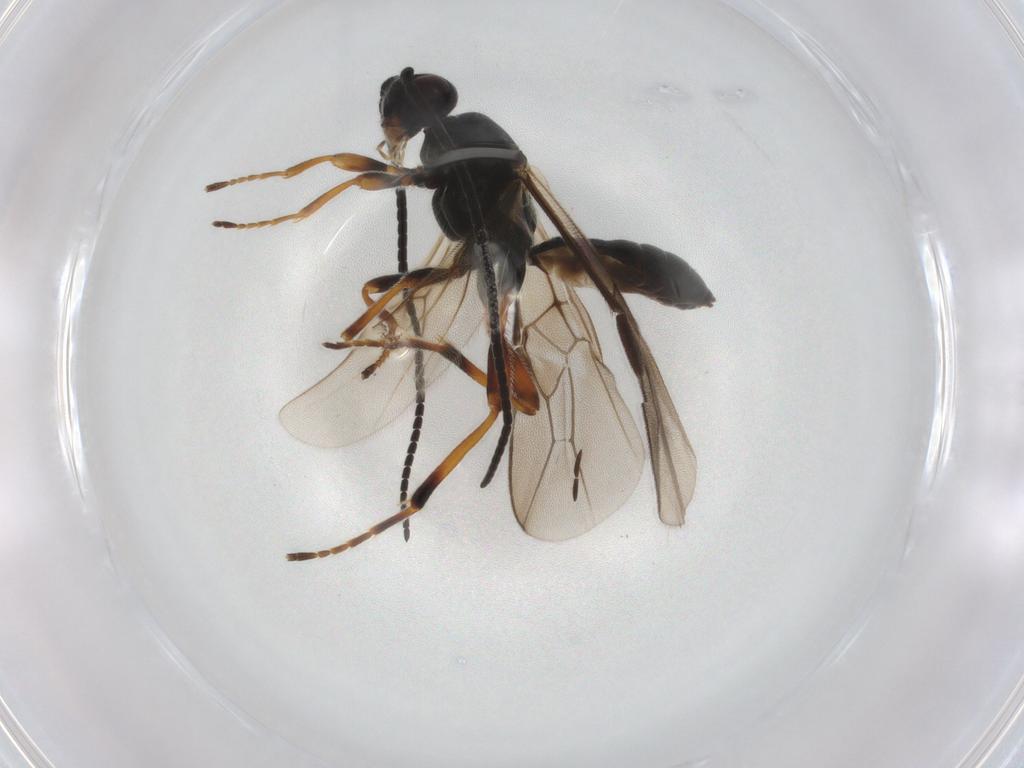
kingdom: Animalia
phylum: Arthropoda
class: Insecta
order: Hymenoptera
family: Braconidae
